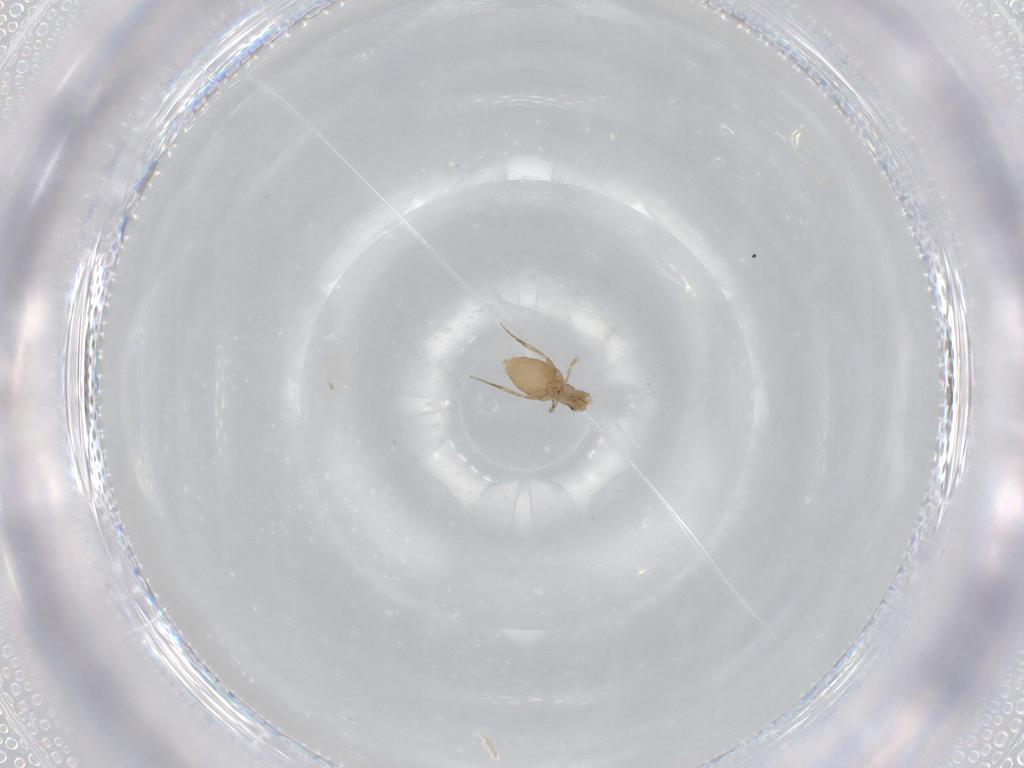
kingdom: Animalia
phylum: Arthropoda
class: Insecta
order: Diptera
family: Phoridae
